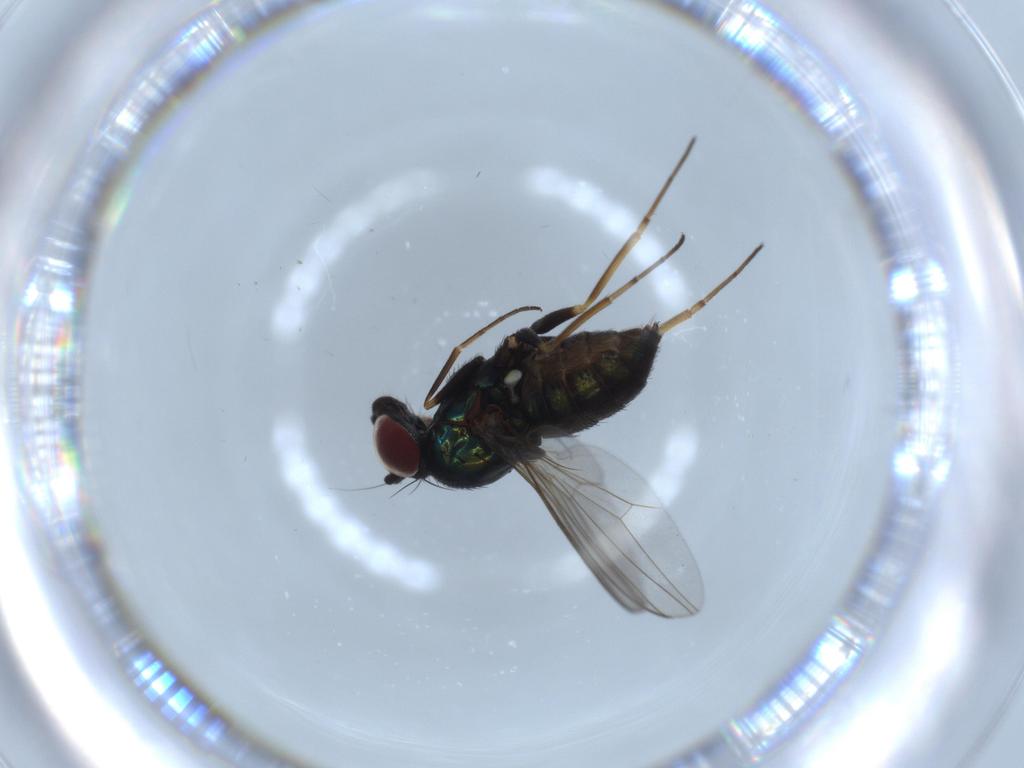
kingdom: Animalia
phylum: Arthropoda
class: Insecta
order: Diptera
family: Dolichopodidae
